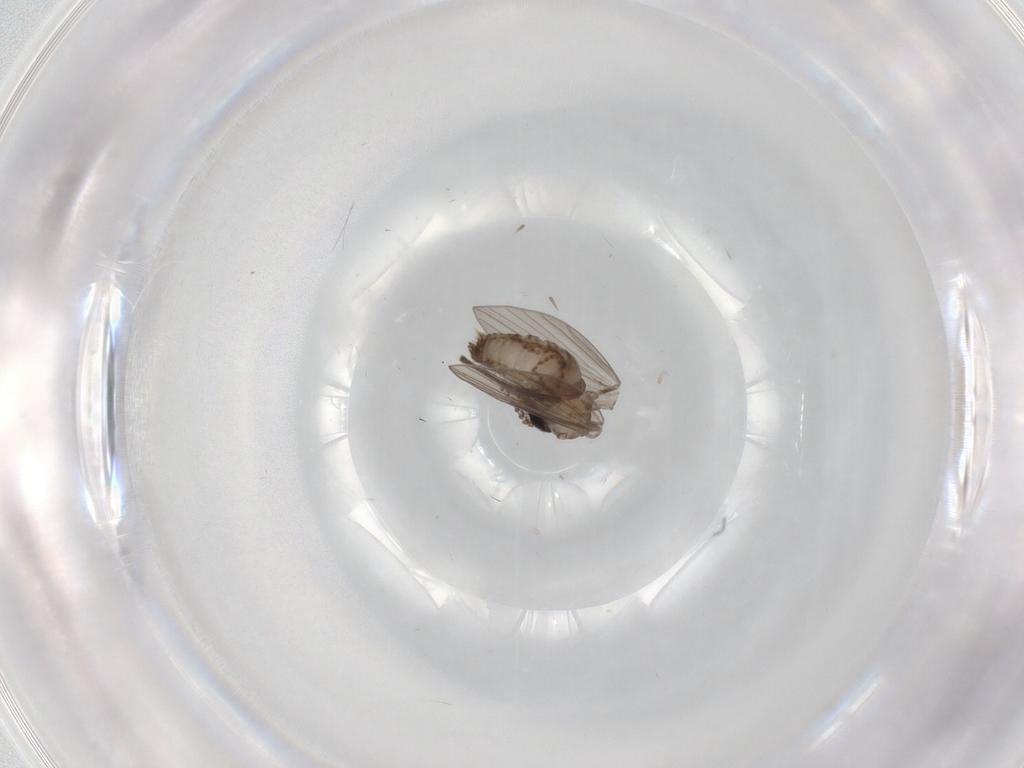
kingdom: Animalia
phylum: Arthropoda
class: Insecta
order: Diptera
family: Psychodidae
